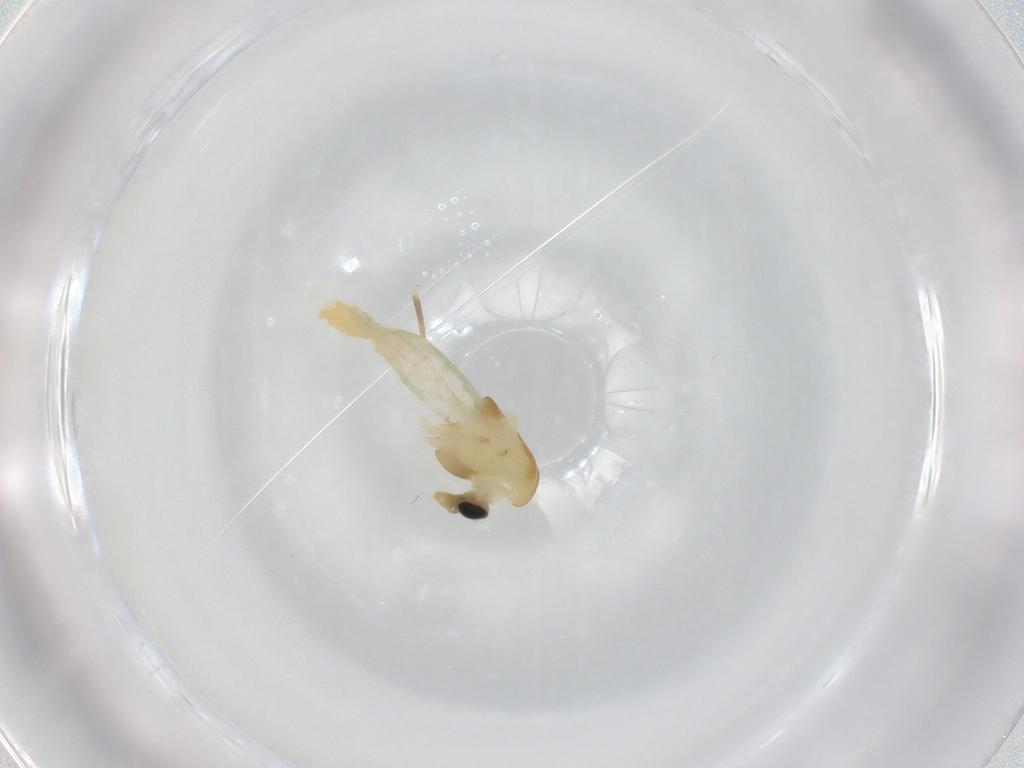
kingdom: Animalia
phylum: Arthropoda
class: Insecta
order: Diptera
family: Chironomidae
